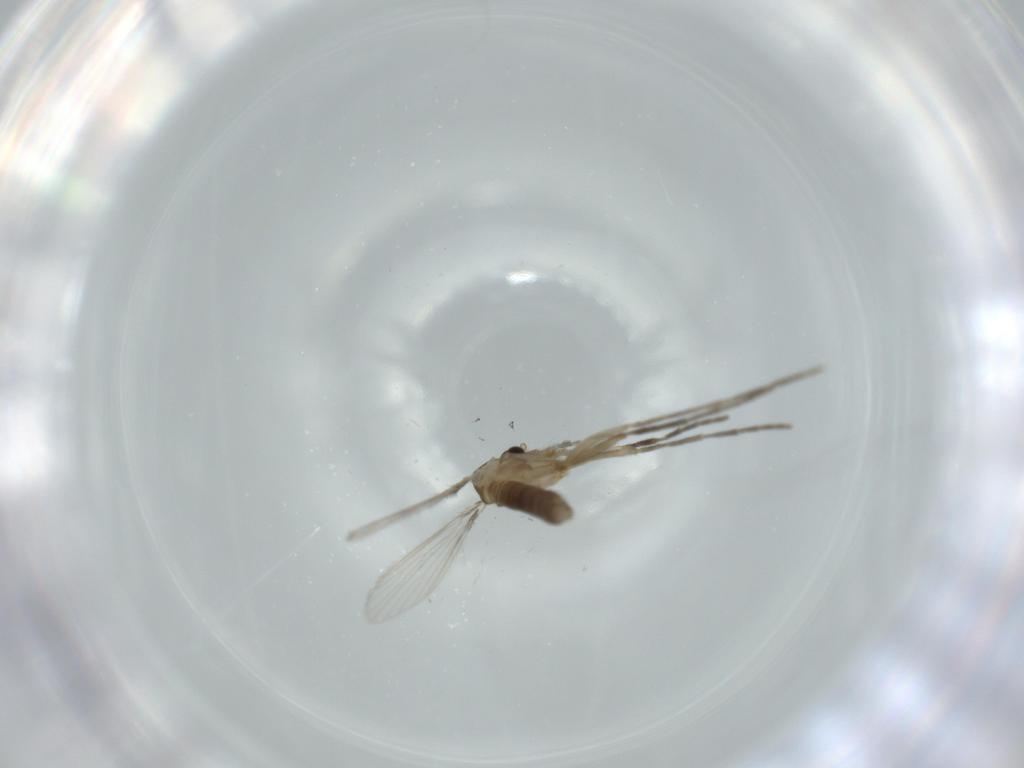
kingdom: Animalia
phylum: Arthropoda
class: Insecta
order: Diptera
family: Psychodidae
